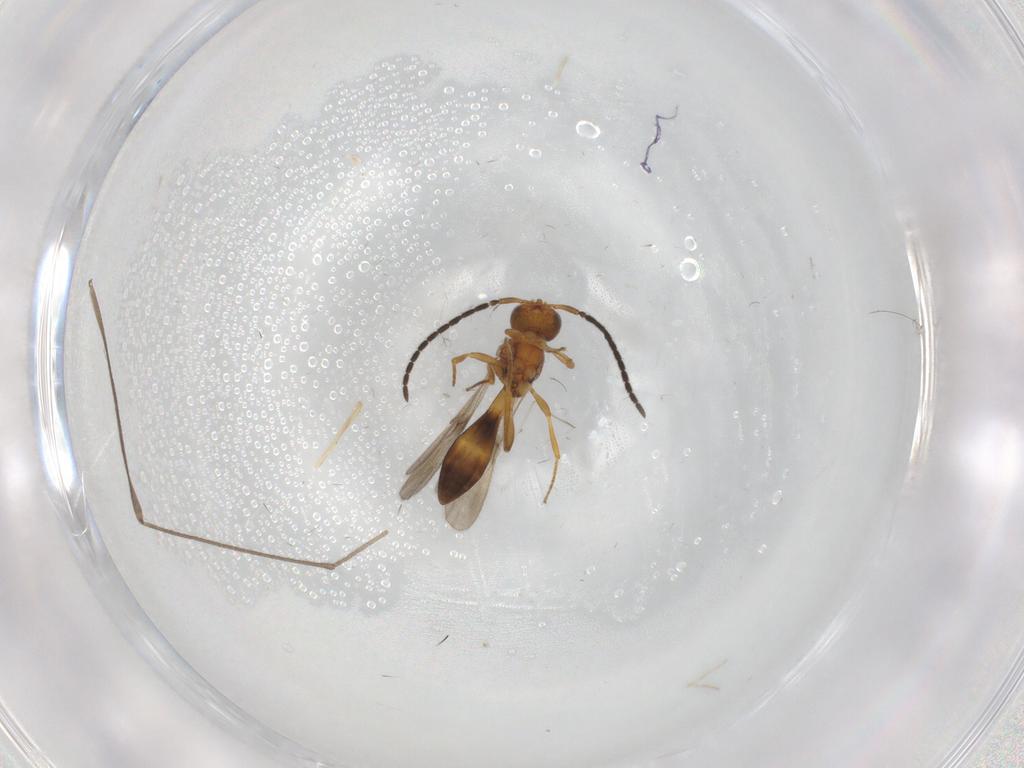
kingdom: Animalia
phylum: Arthropoda
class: Insecta
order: Hymenoptera
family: Scelionidae
